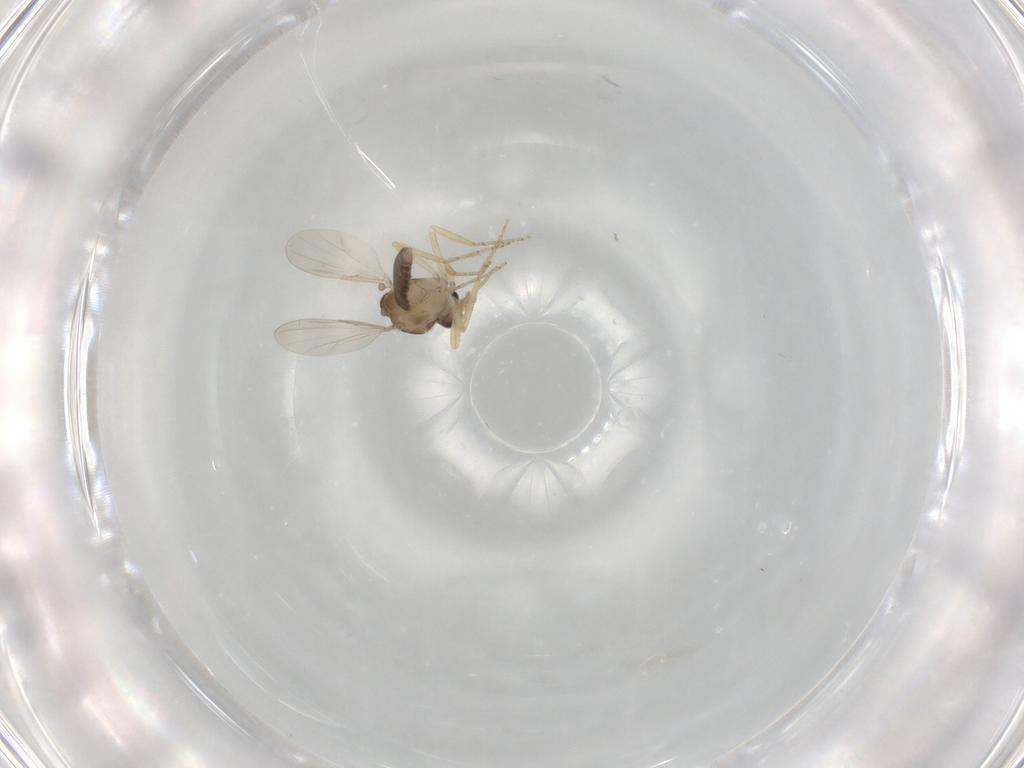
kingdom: Animalia
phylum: Arthropoda
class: Insecta
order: Diptera
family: Ceratopogonidae
